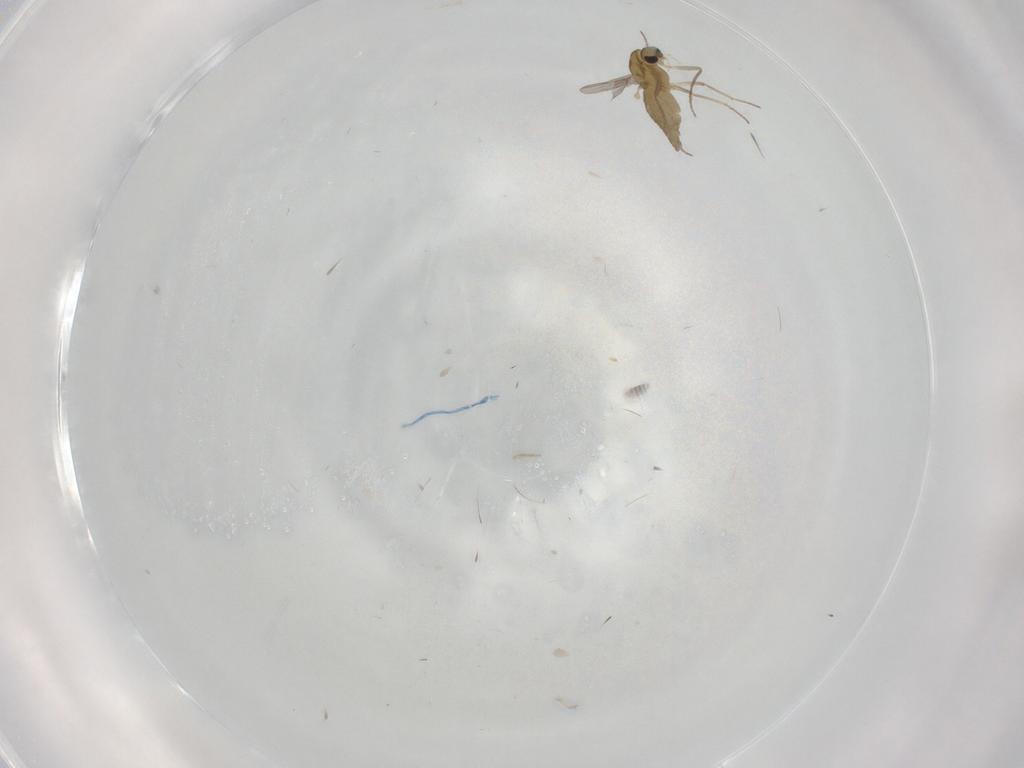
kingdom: Animalia
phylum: Arthropoda
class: Insecta
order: Diptera
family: Chironomidae
